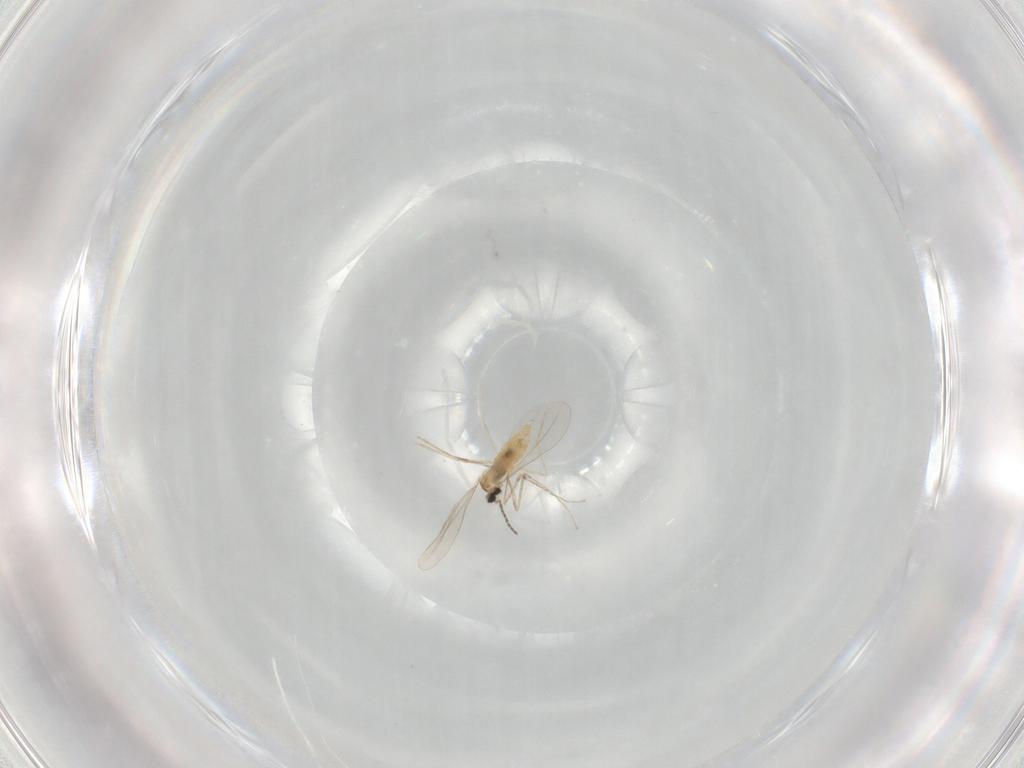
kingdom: Animalia
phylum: Arthropoda
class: Insecta
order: Diptera
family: Cecidomyiidae
